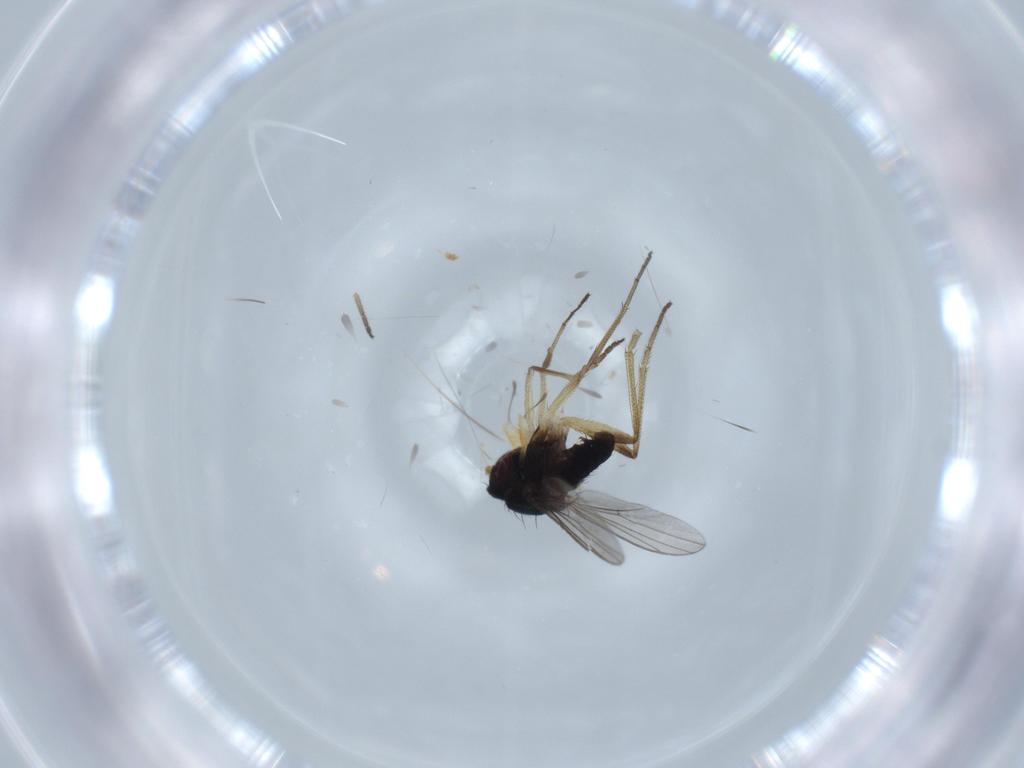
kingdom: Animalia
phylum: Arthropoda
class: Insecta
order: Diptera
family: Dolichopodidae
